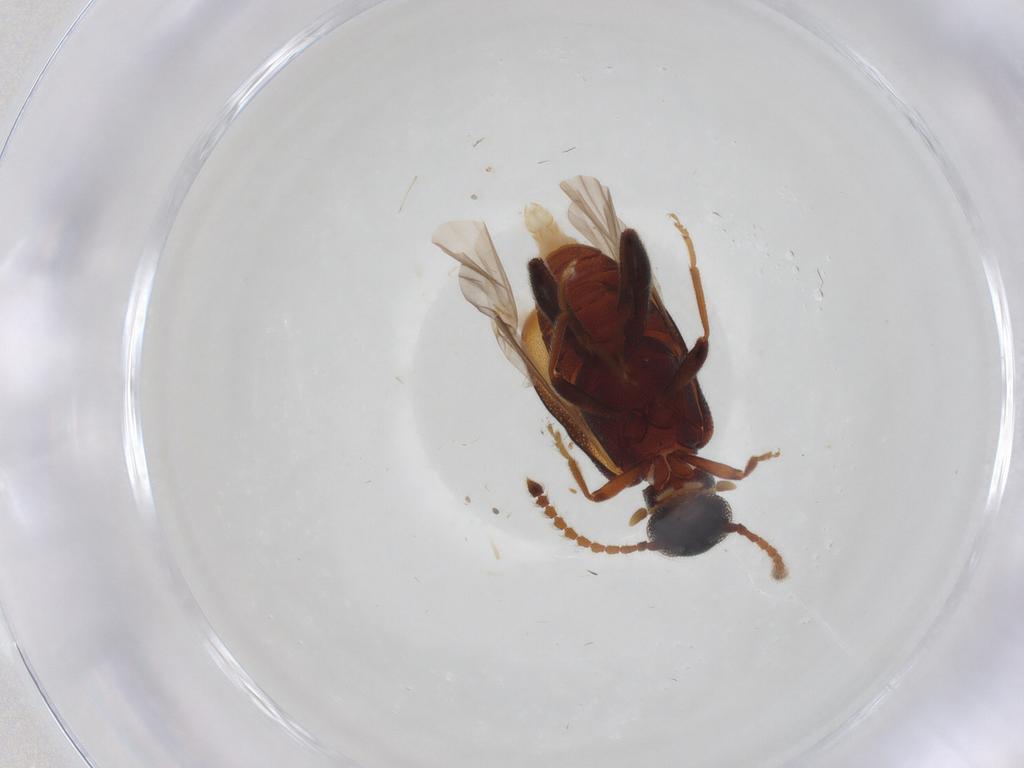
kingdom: Animalia
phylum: Arthropoda
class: Insecta
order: Coleoptera
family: Aderidae
